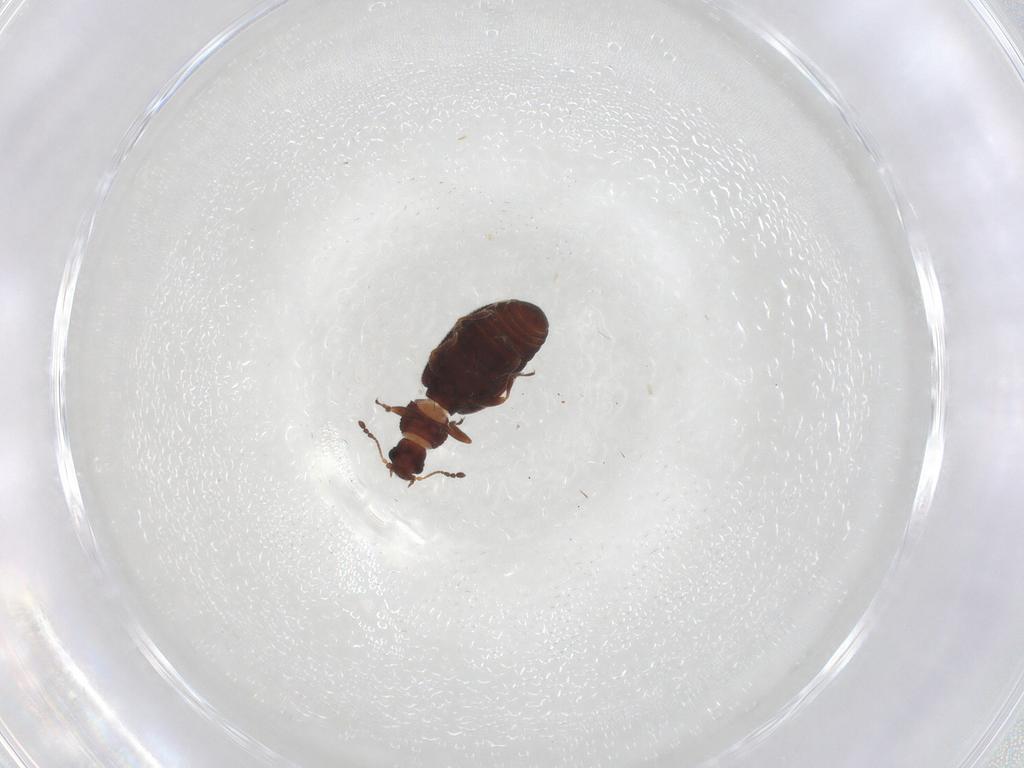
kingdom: Animalia
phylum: Arthropoda
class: Insecta
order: Coleoptera
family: Latridiidae
